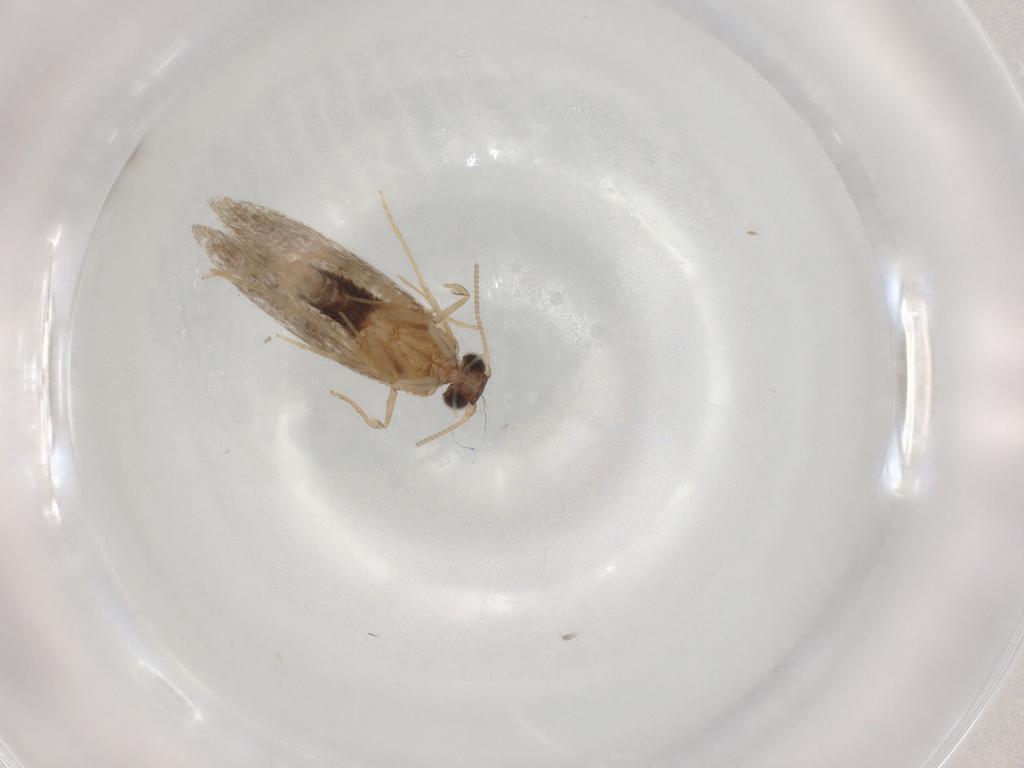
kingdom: Animalia
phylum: Arthropoda
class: Insecta
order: Lepidoptera
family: Tineidae
